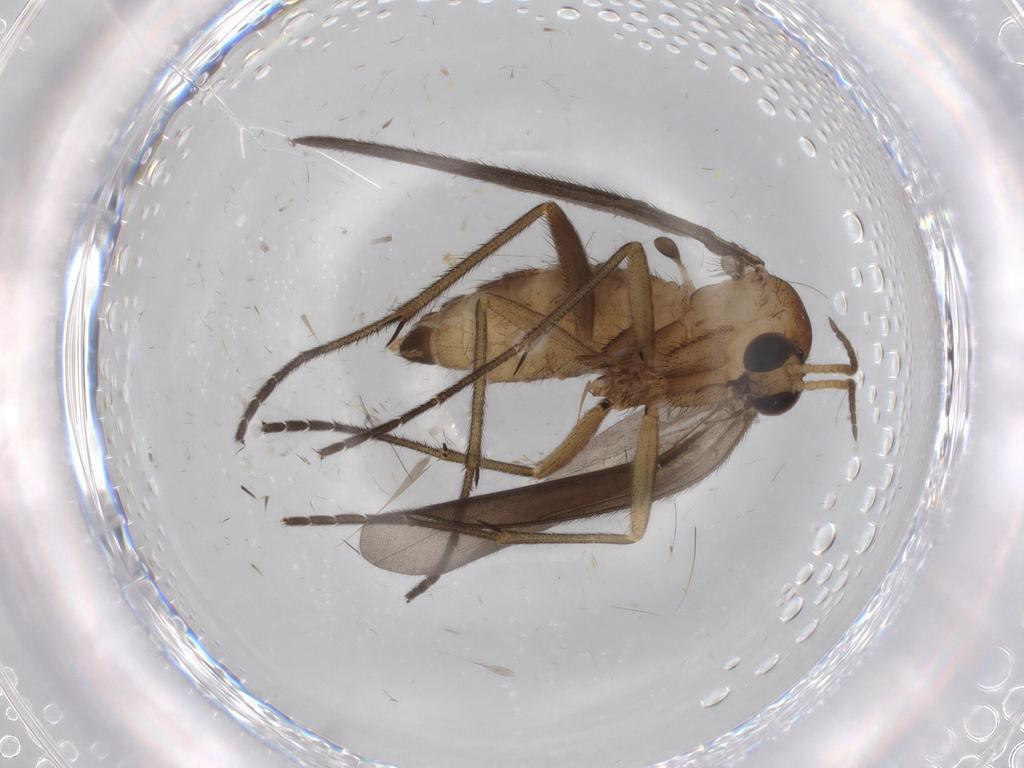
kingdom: Animalia
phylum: Arthropoda
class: Insecta
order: Diptera
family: Diadocidiidae
